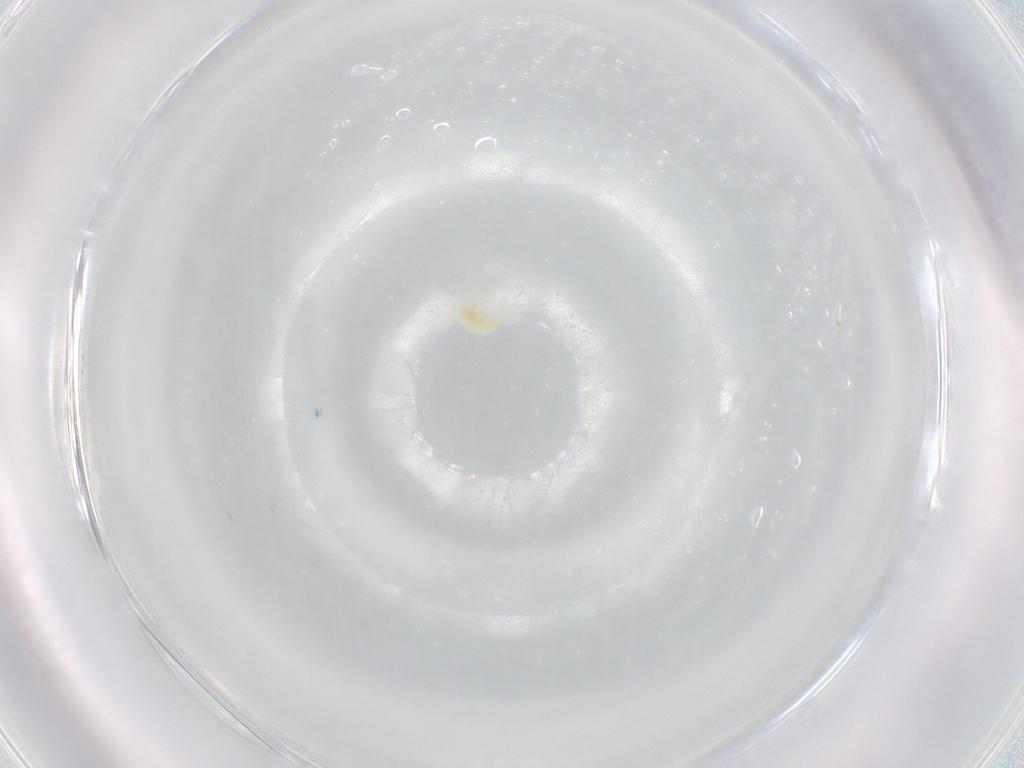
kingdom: Animalia
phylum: Arthropoda
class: Arachnida
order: Trombidiformes
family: Eupodidae
